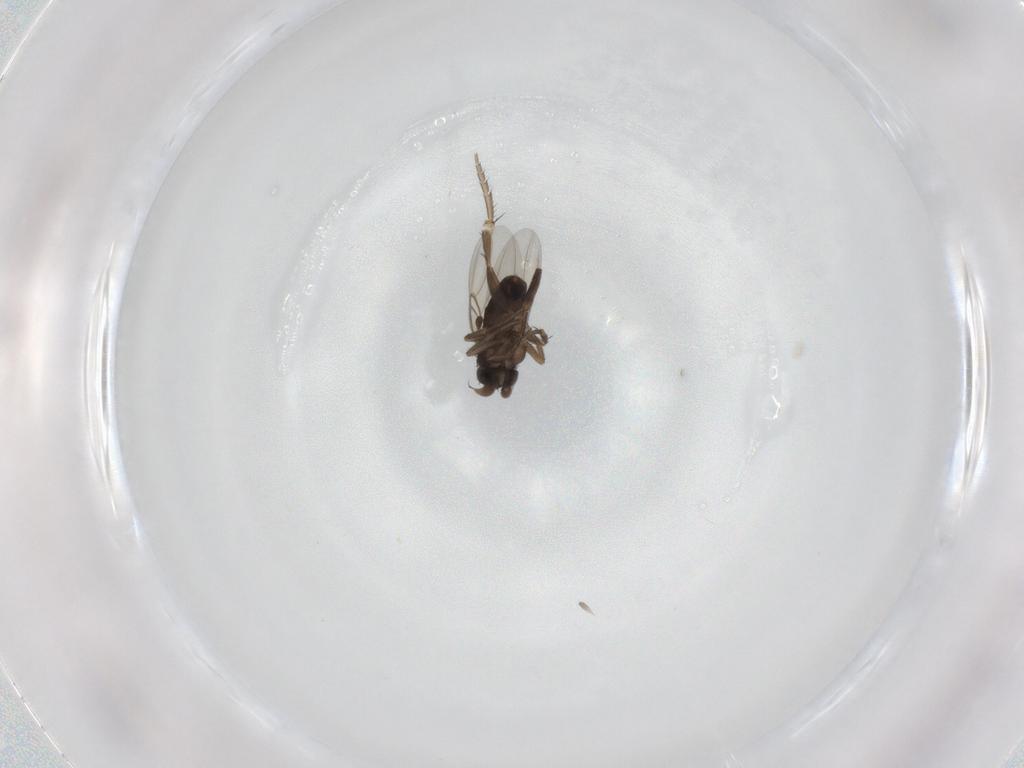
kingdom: Animalia
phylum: Arthropoda
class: Insecta
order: Diptera
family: Phoridae
